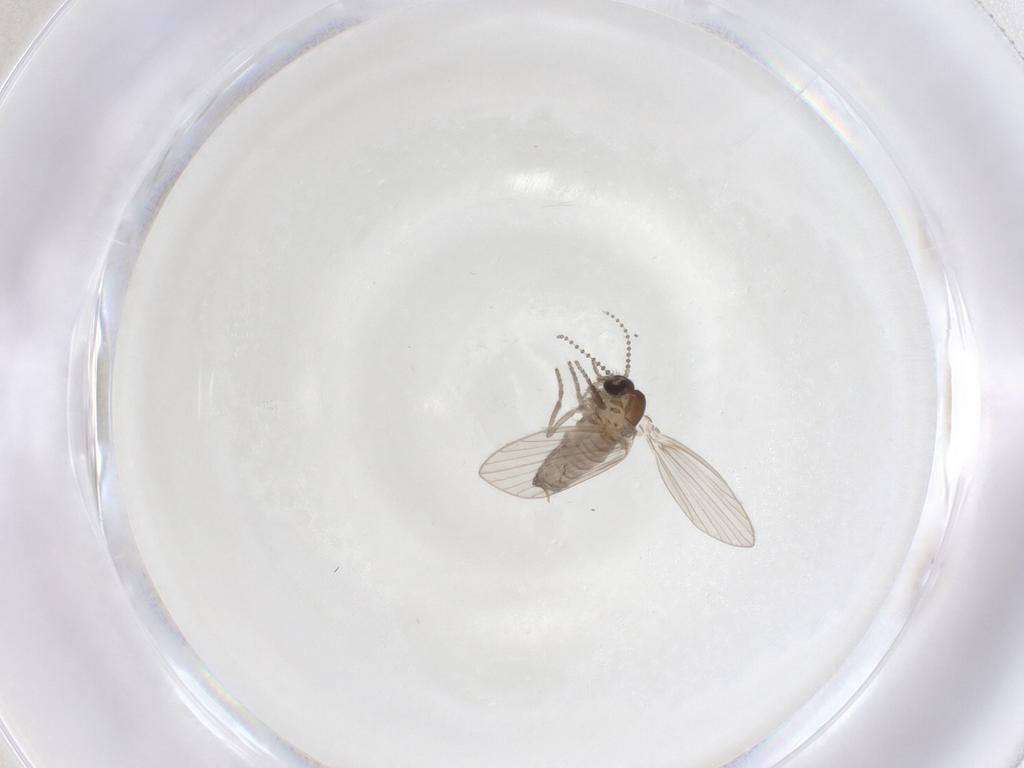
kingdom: Animalia
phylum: Arthropoda
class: Insecta
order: Diptera
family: Psychodidae
